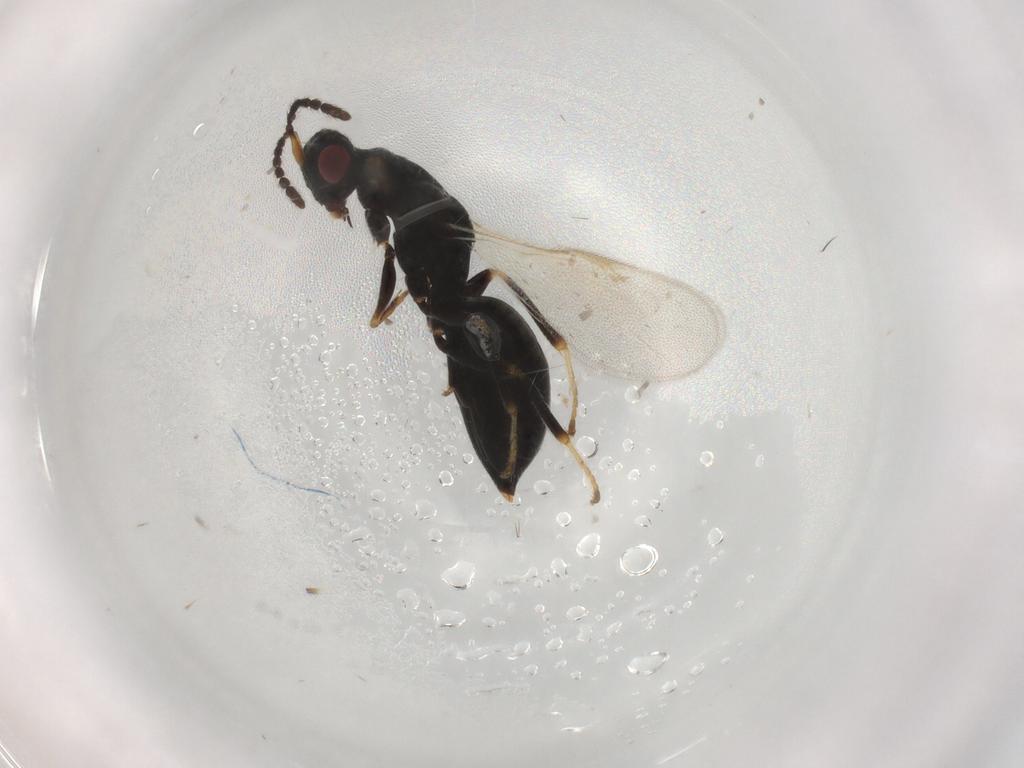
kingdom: Animalia
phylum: Arthropoda
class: Insecta
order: Hymenoptera
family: Eurytomidae
